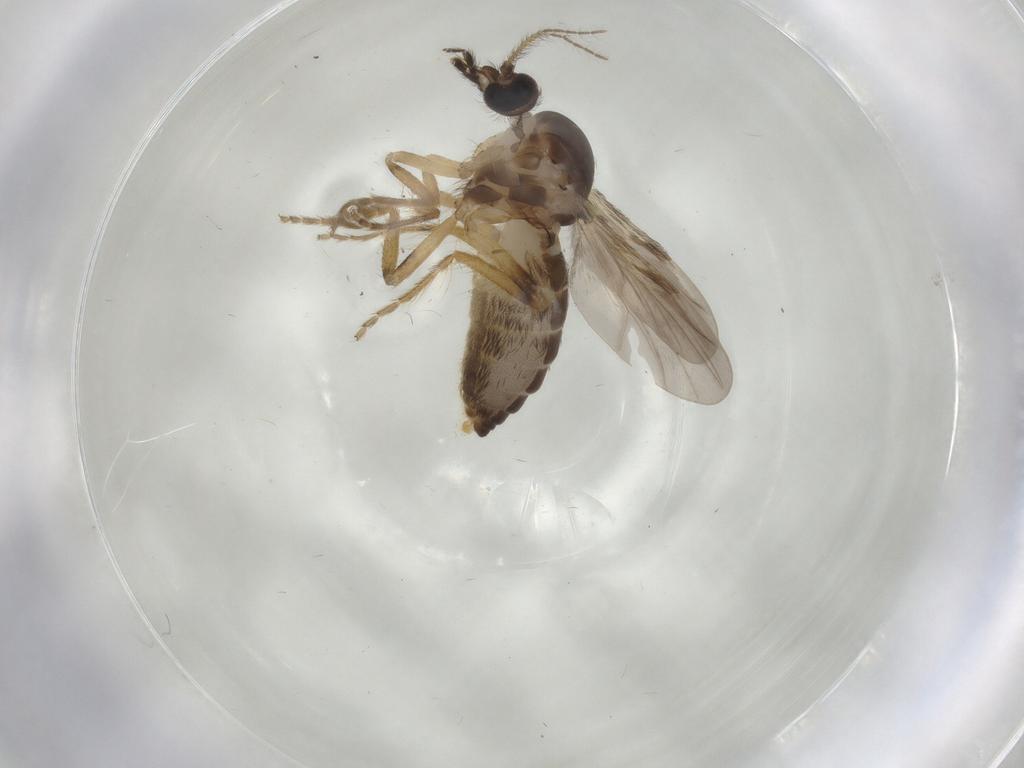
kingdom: Animalia
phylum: Arthropoda
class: Insecta
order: Diptera
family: Ceratopogonidae
